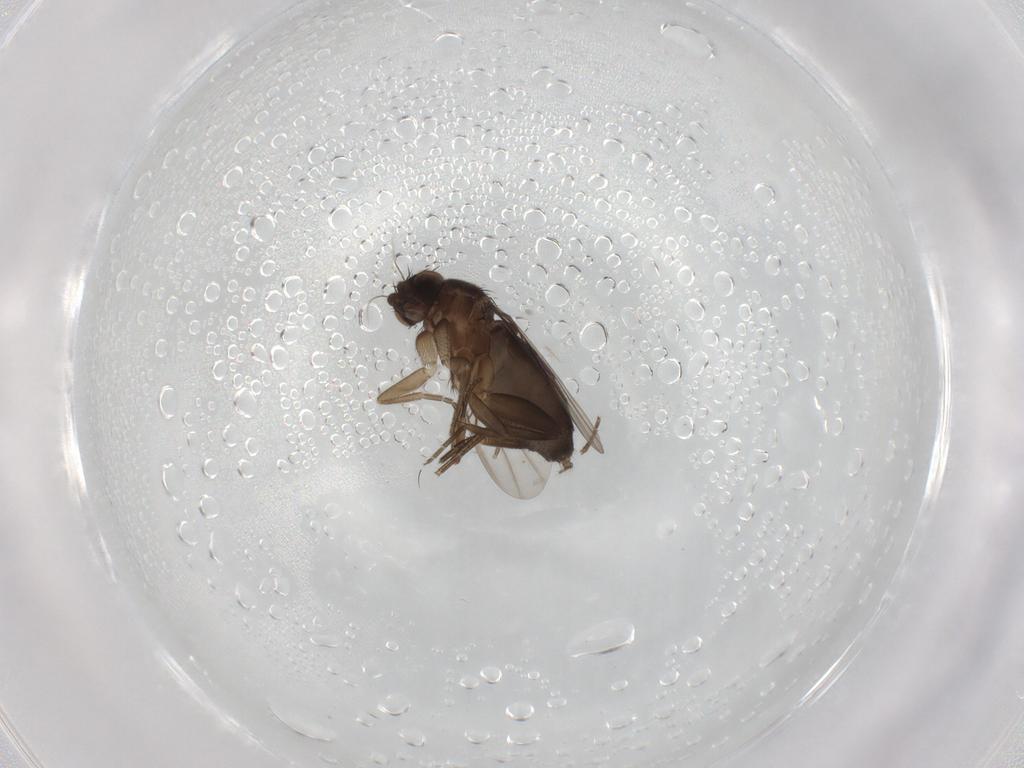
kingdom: Animalia
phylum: Arthropoda
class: Insecta
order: Diptera
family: Phoridae
